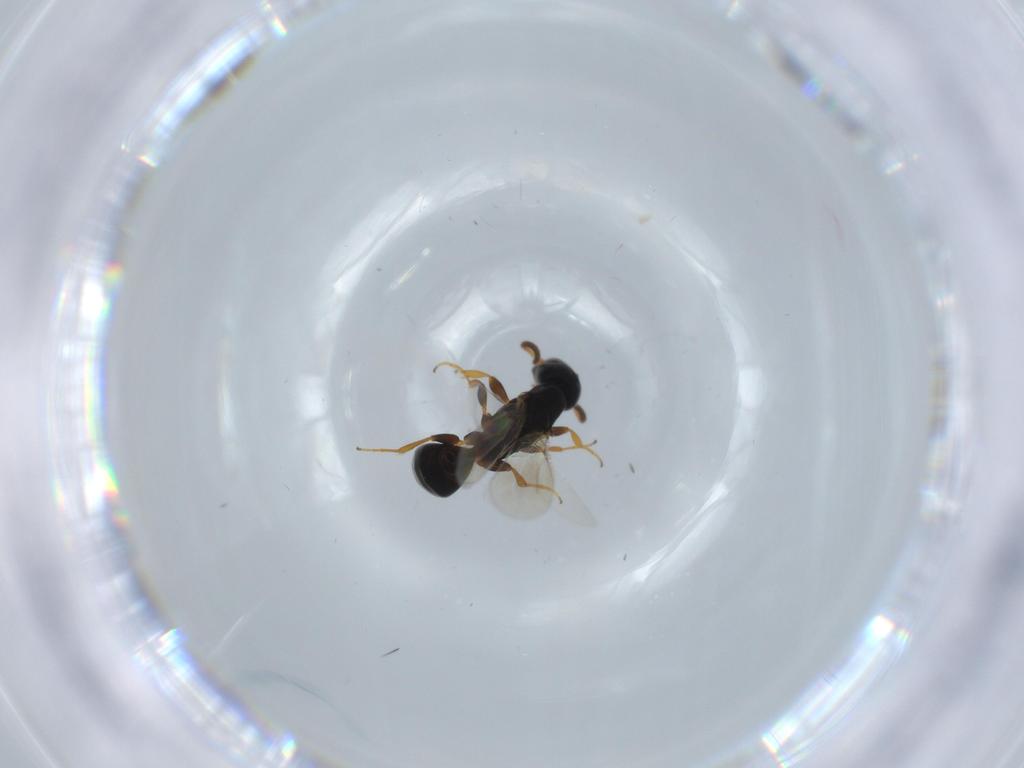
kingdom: Animalia
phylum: Arthropoda
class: Insecta
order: Hymenoptera
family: Bethylidae
